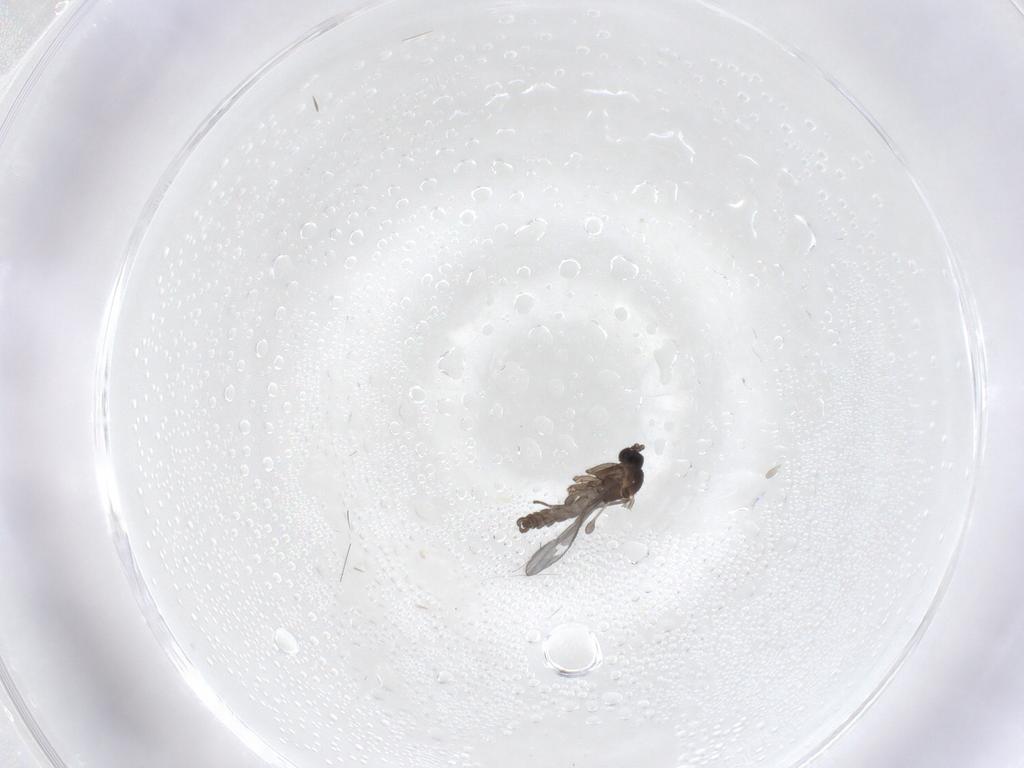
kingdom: Animalia
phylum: Arthropoda
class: Insecta
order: Diptera
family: Sciaridae
